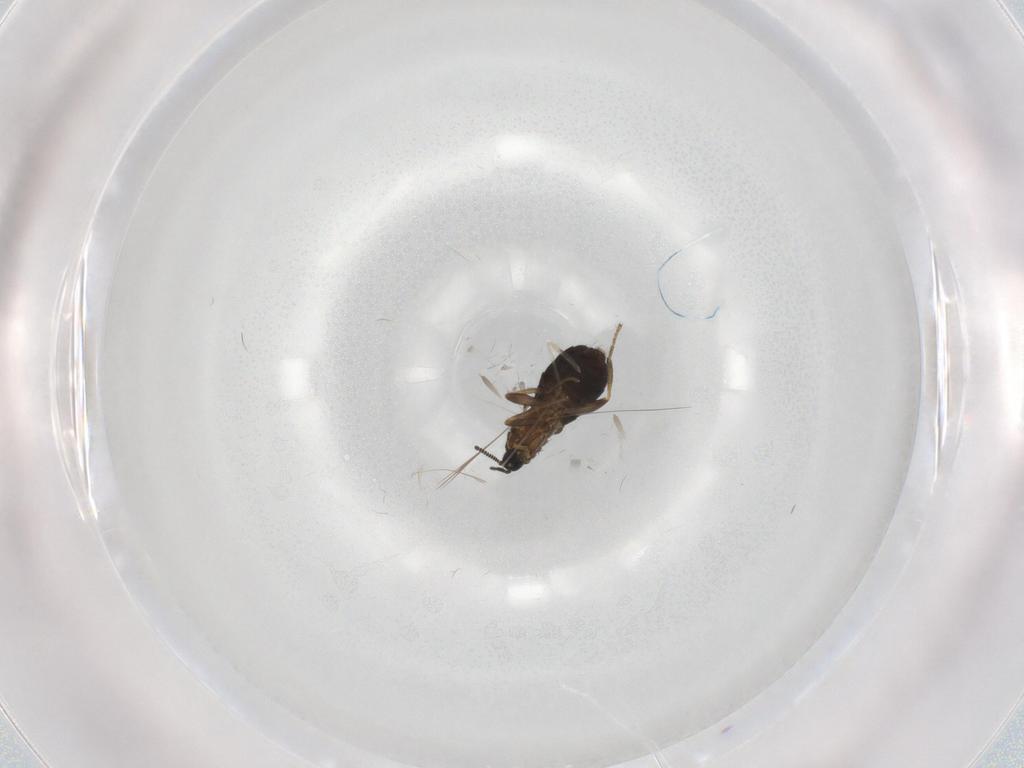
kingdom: Animalia
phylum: Arthropoda
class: Insecta
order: Diptera
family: Scatopsidae
